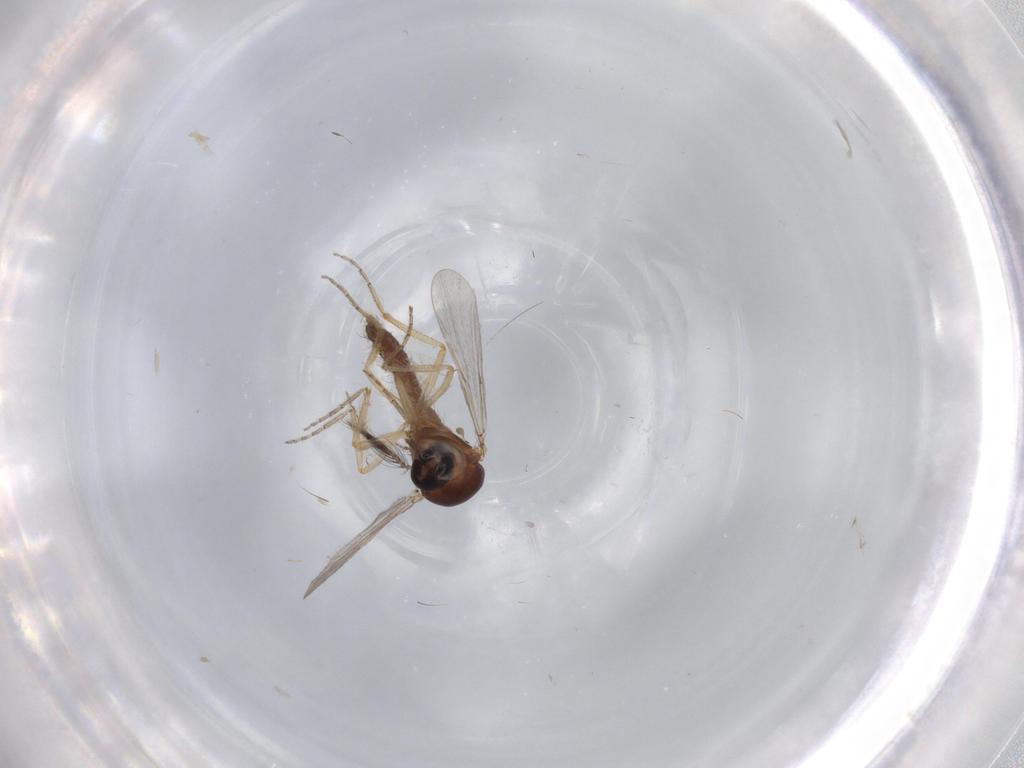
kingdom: Animalia
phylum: Arthropoda
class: Insecta
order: Diptera
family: Ceratopogonidae
